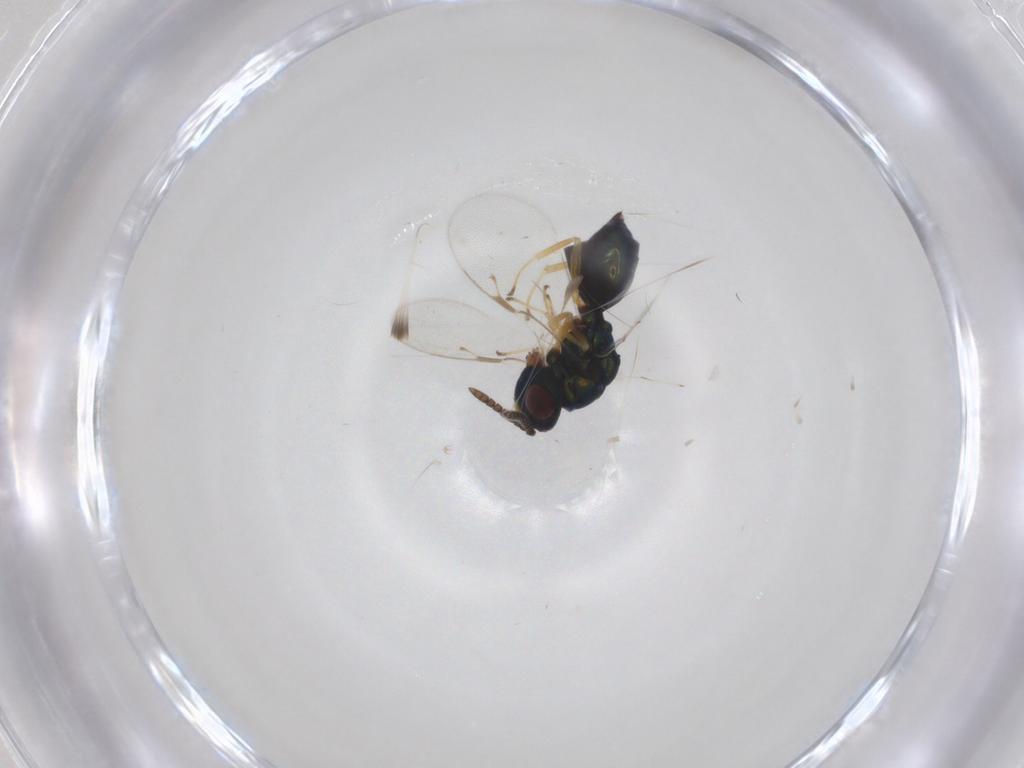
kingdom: Animalia
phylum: Arthropoda
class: Insecta
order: Hymenoptera
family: Pteromalidae
